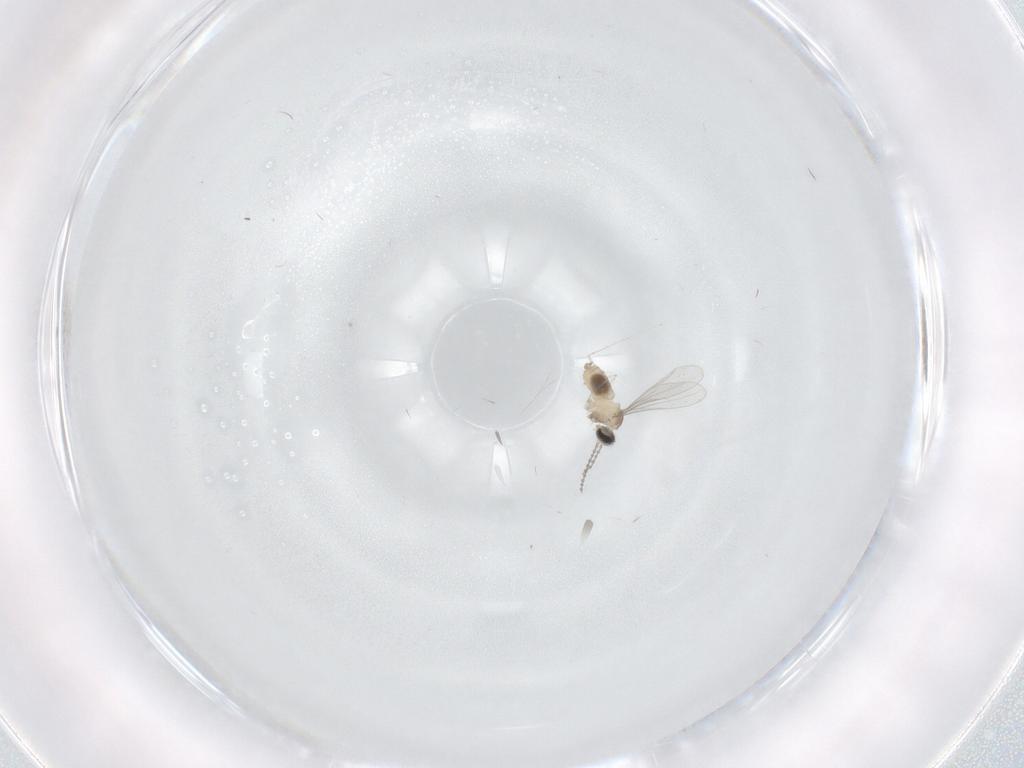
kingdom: Animalia
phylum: Arthropoda
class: Insecta
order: Diptera
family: Cecidomyiidae
